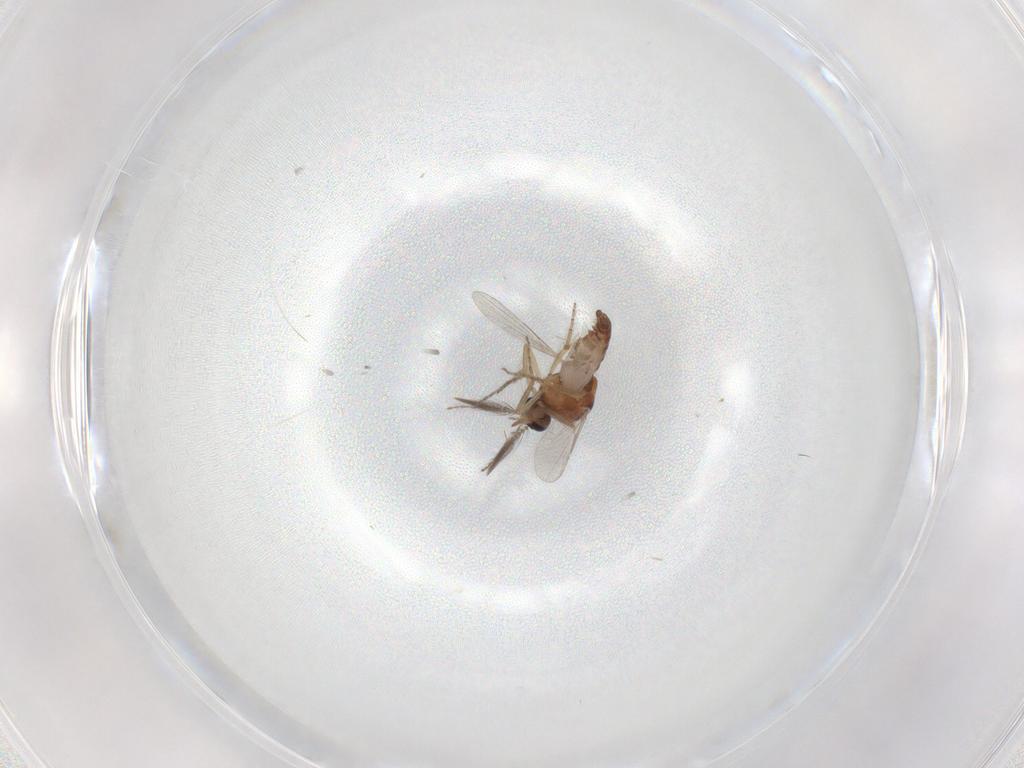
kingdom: Animalia
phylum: Arthropoda
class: Insecta
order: Diptera
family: Ceratopogonidae
